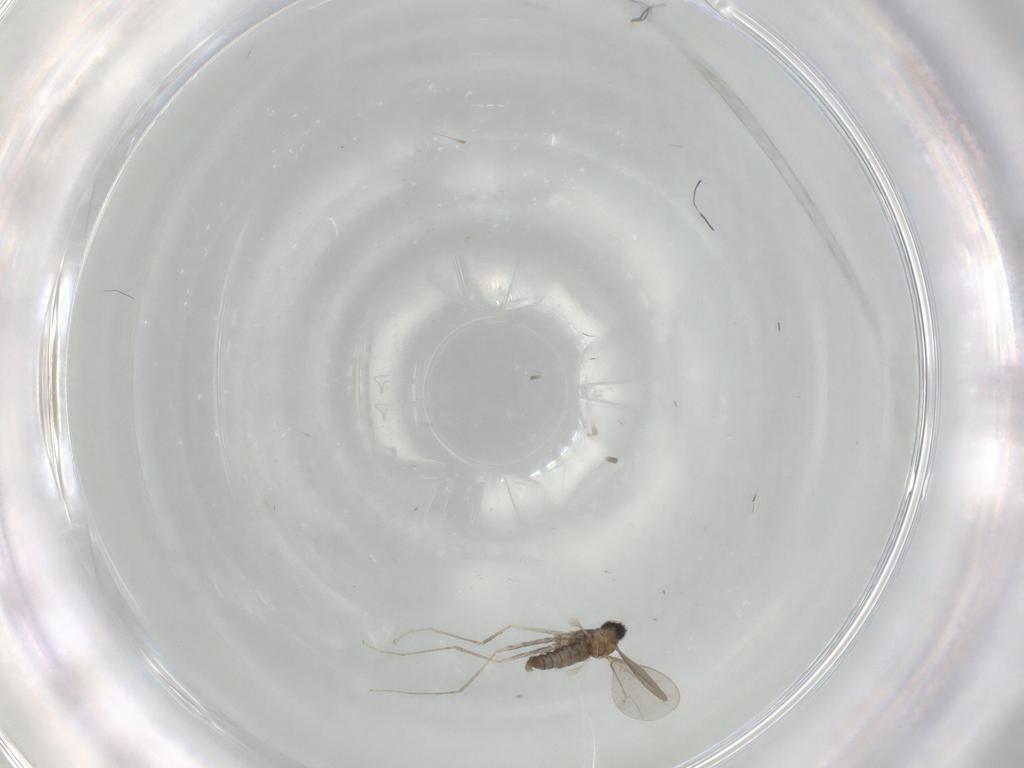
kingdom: Animalia
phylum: Arthropoda
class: Insecta
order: Diptera
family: Cecidomyiidae
